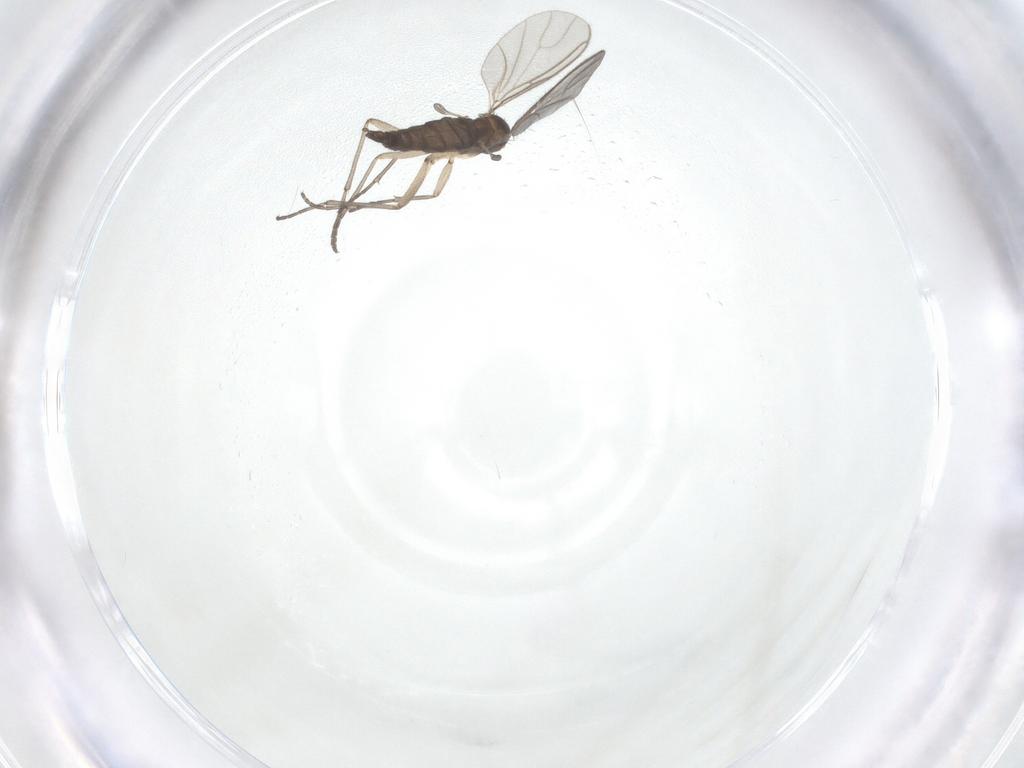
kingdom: Animalia
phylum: Arthropoda
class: Insecta
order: Diptera
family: Sciaridae
